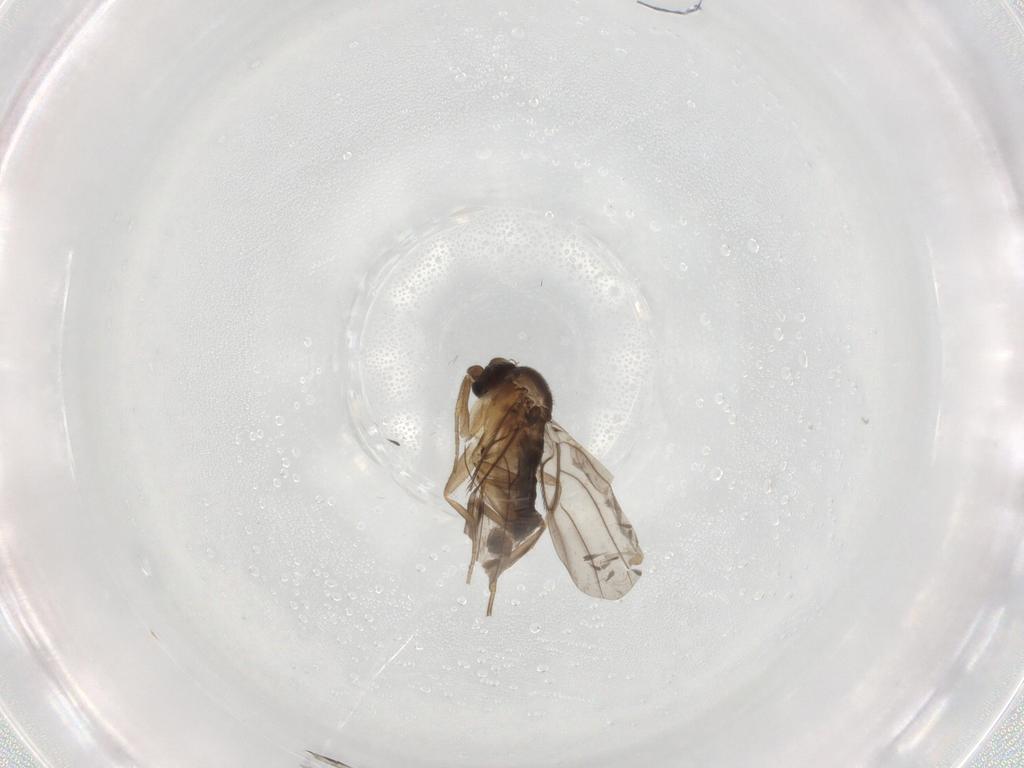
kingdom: Animalia
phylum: Arthropoda
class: Insecta
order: Diptera
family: Phoridae
